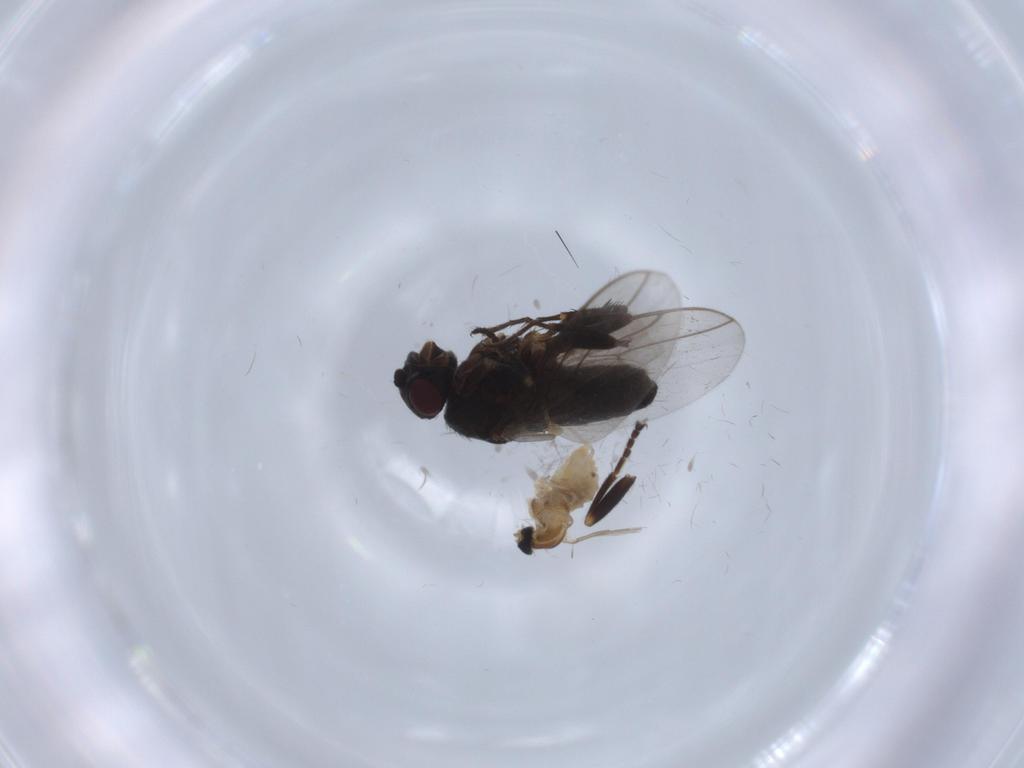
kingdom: Animalia
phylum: Arthropoda
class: Insecta
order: Diptera
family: Cecidomyiidae
